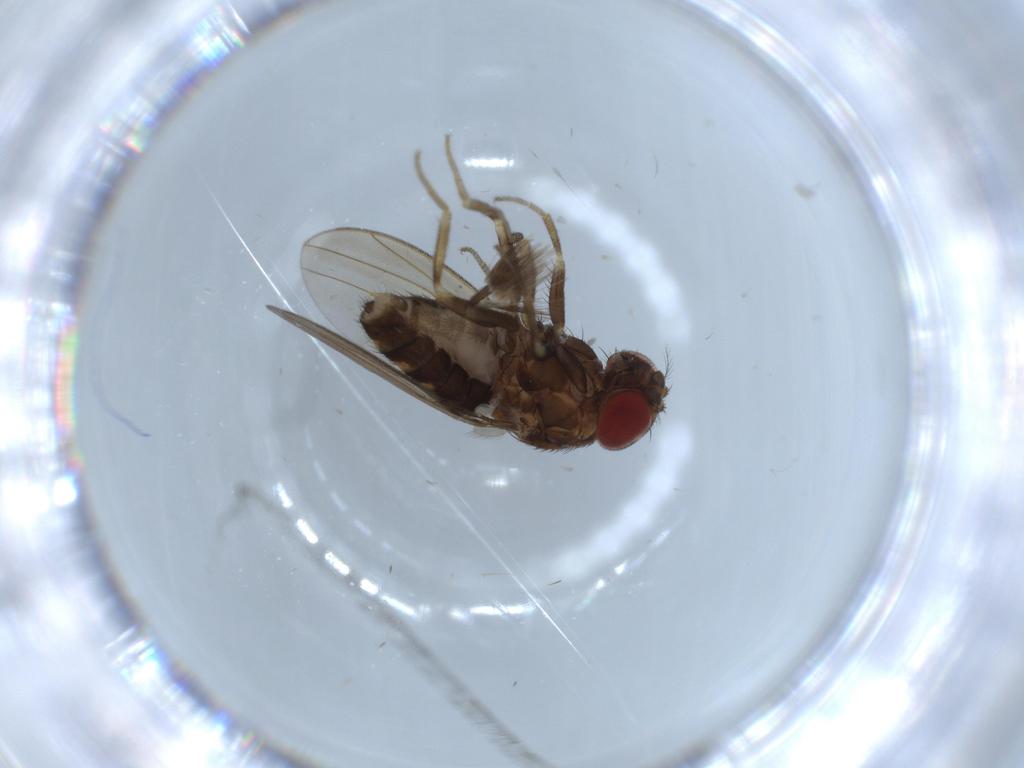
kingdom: Animalia
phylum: Arthropoda
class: Insecta
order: Diptera
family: Drosophilidae
